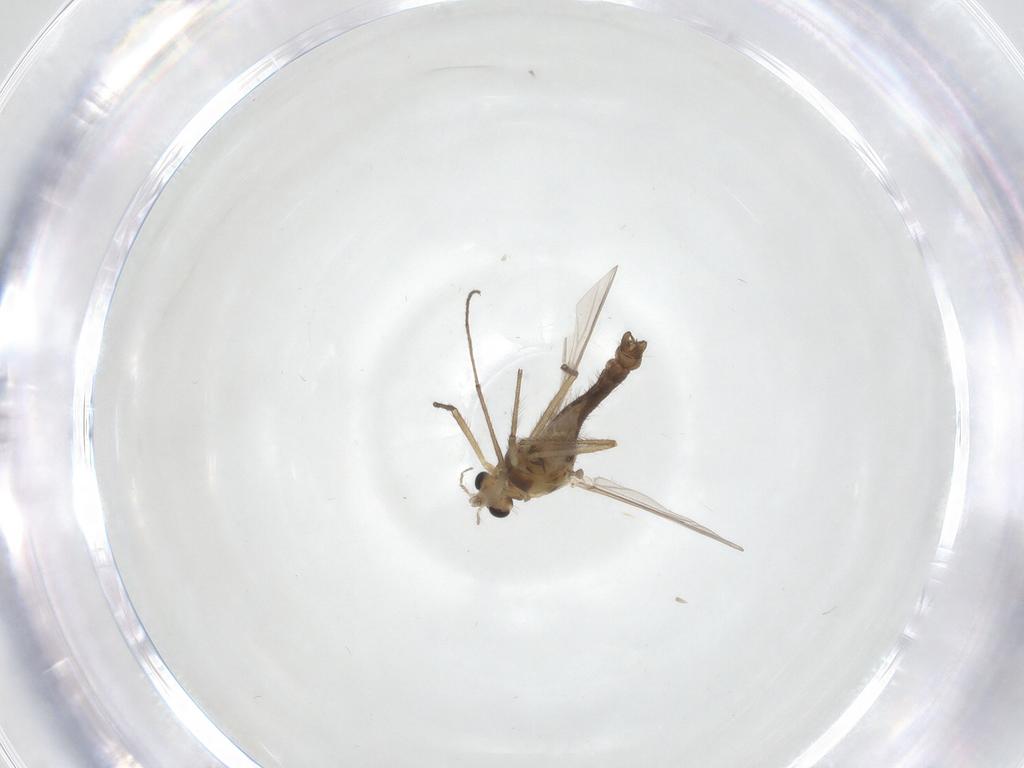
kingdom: Animalia
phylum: Arthropoda
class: Insecta
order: Diptera
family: Chironomidae
